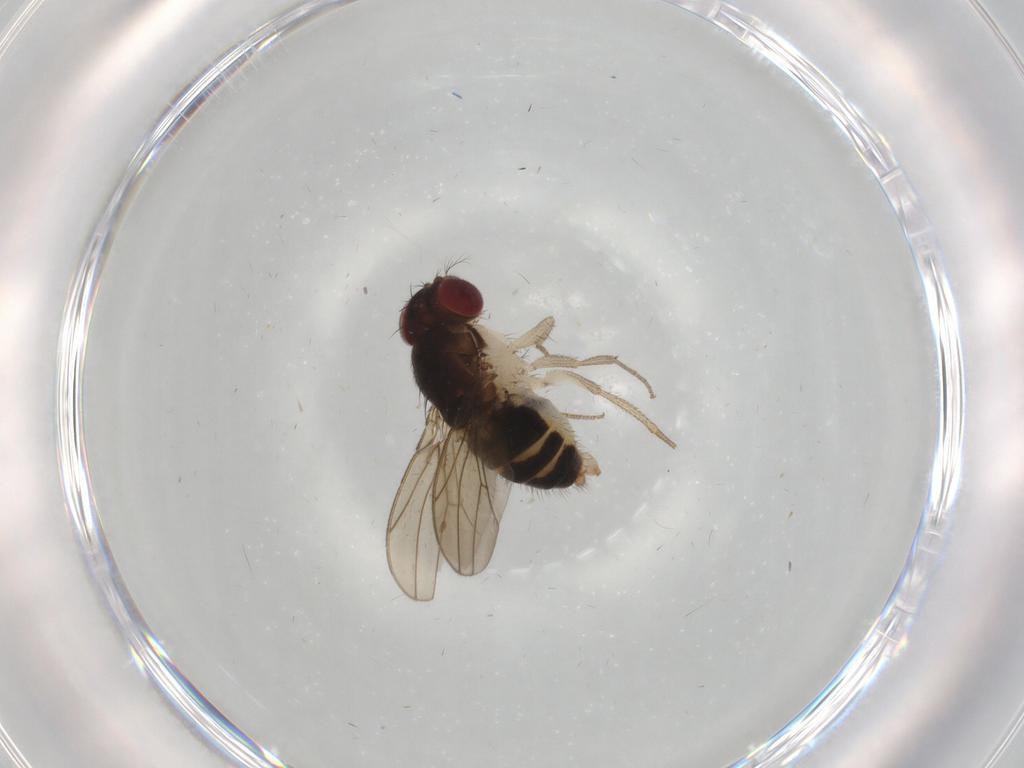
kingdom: Animalia
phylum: Arthropoda
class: Insecta
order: Diptera
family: Drosophilidae
